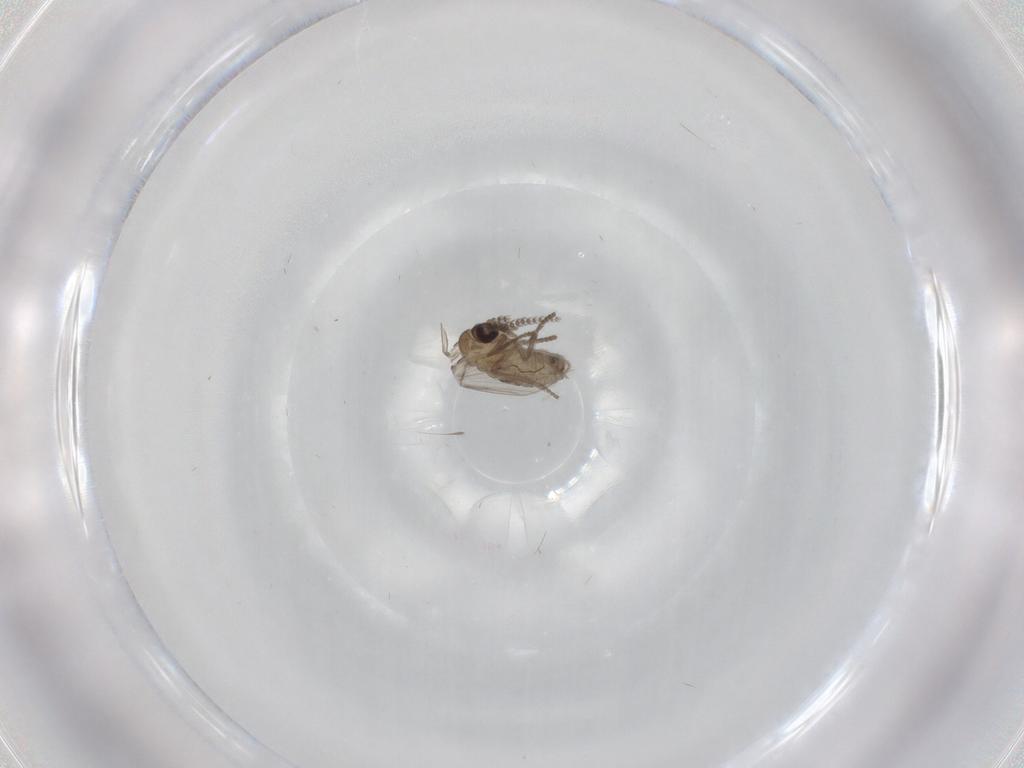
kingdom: Animalia
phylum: Arthropoda
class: Insecta
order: Diptera
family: Psychodidae
